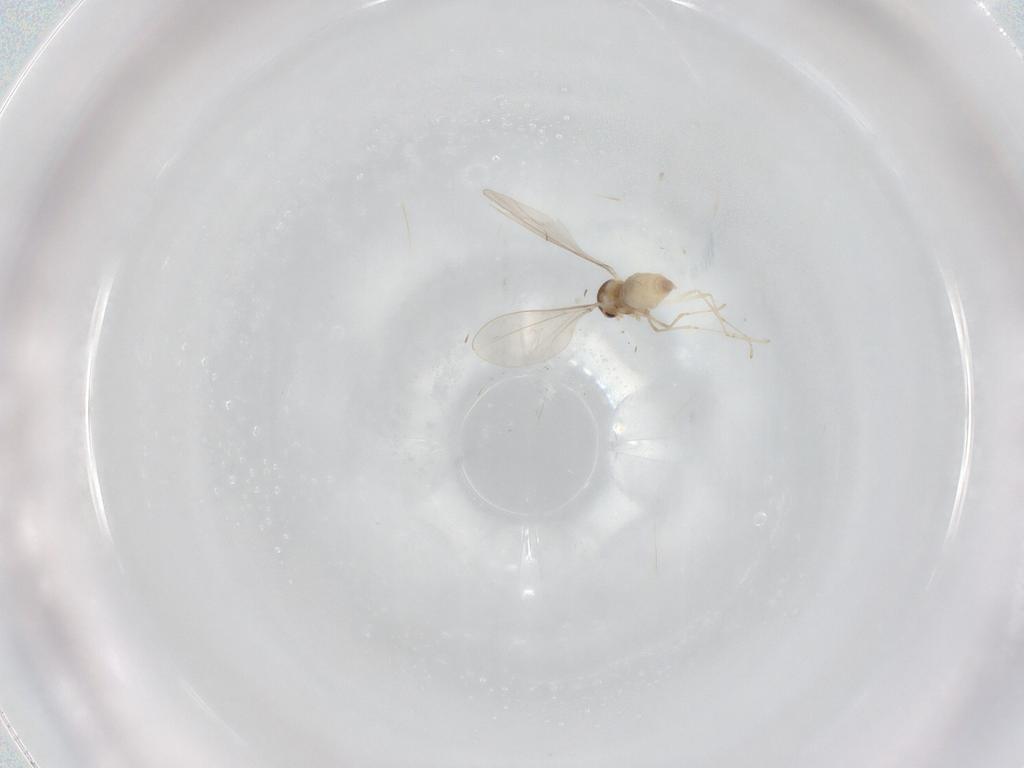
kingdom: Animalia
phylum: Arthropoda
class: Insecta
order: Diptera
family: Cecidomyiidae
